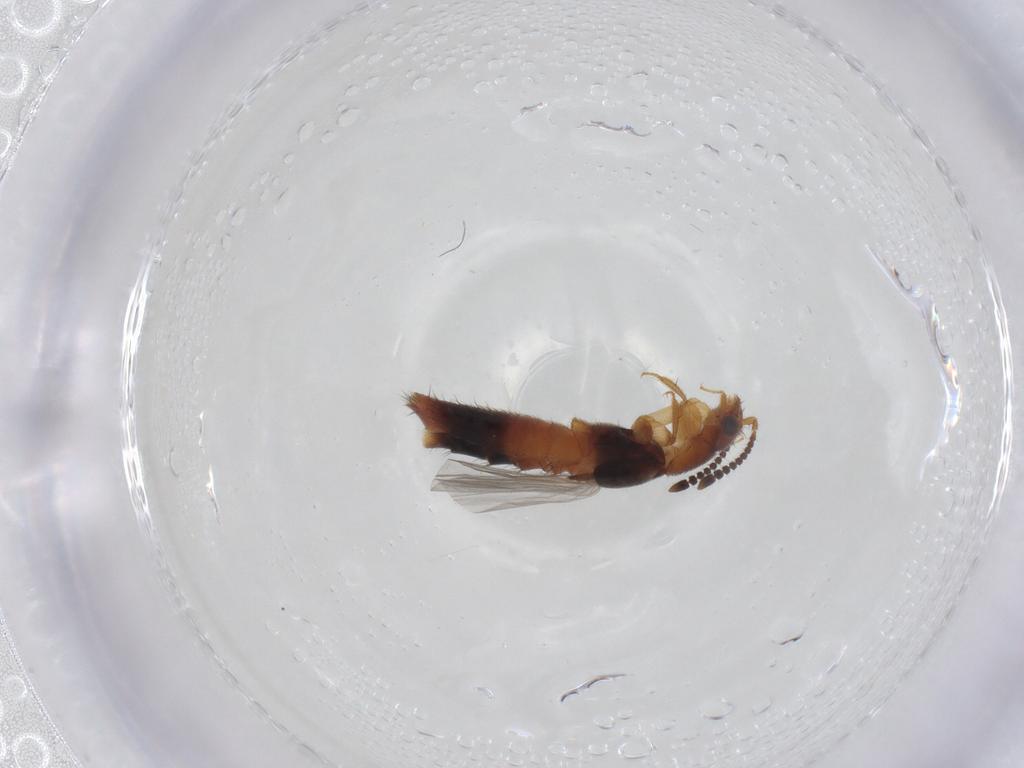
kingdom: Animalia
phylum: Arthropoda
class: Insecta
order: Coleoptera
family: Staphylinidae
